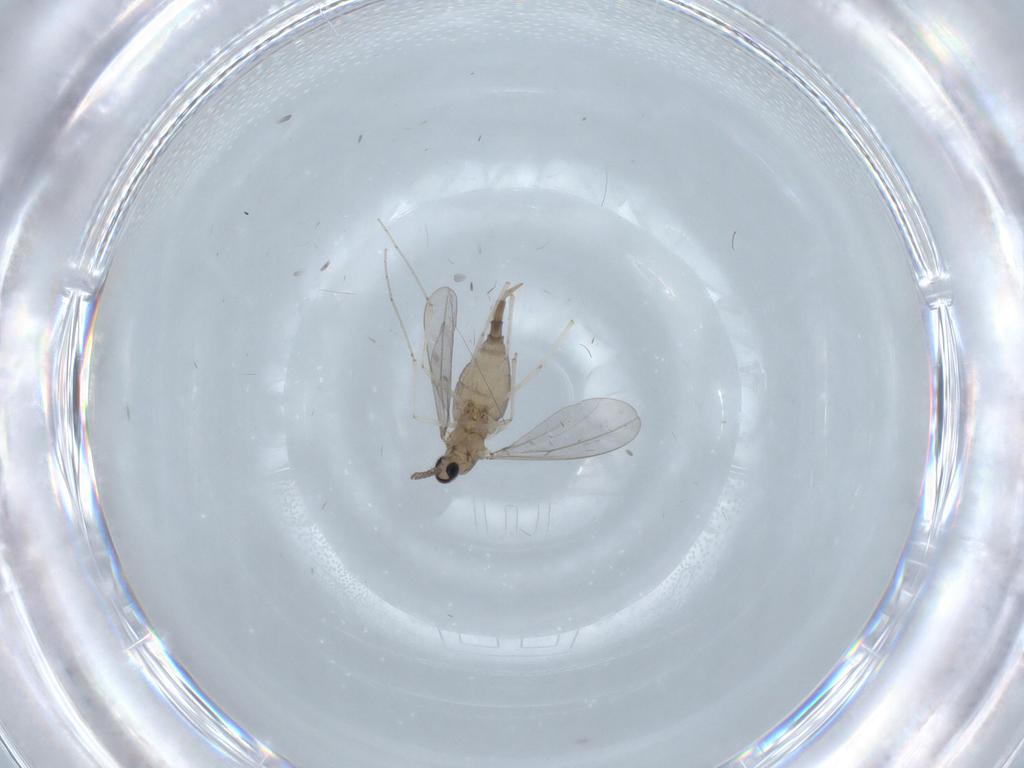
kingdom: Animalia
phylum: Arthropoda
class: Insecta
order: Diptera
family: Cecidomyiidae
